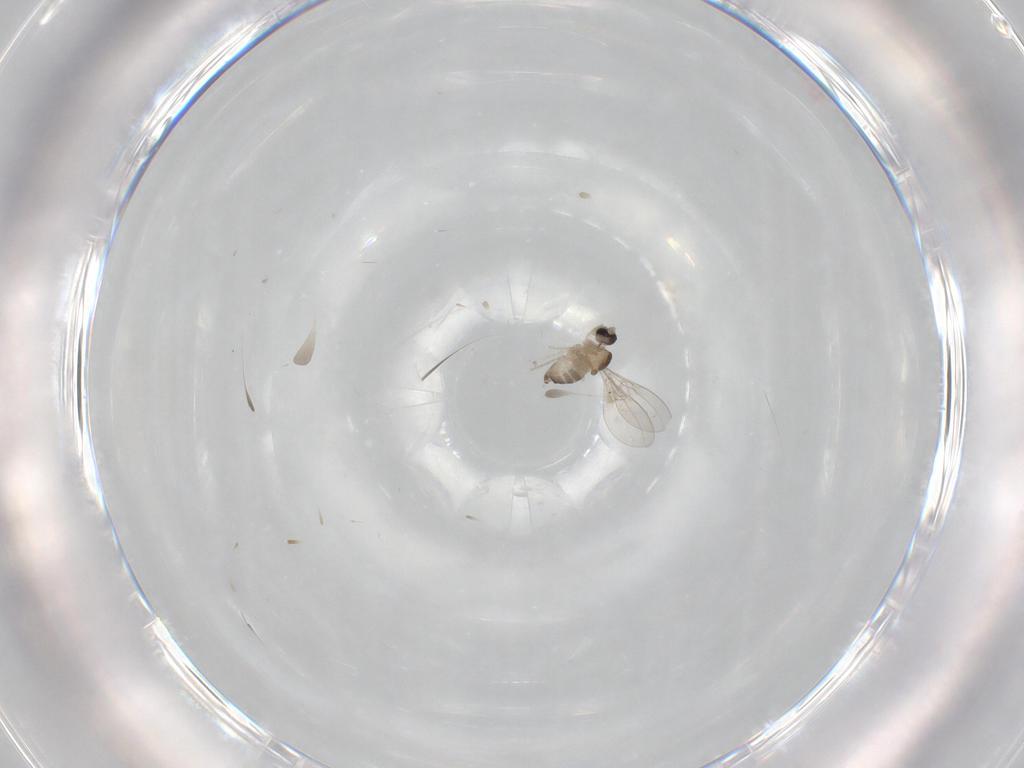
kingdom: Animalia
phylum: Arthropoda
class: Insecta
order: Diptera
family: Cecidomyiidae
